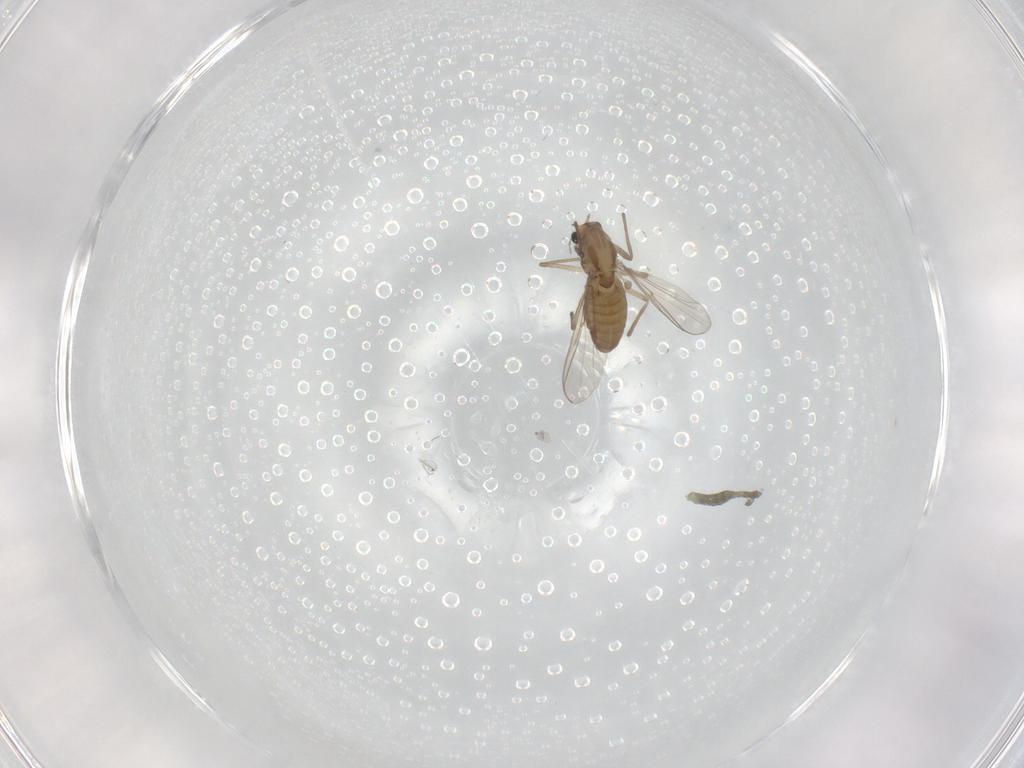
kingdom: Animalia
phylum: Arthropoda
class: Insecta
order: Diptera
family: Chironomidae
